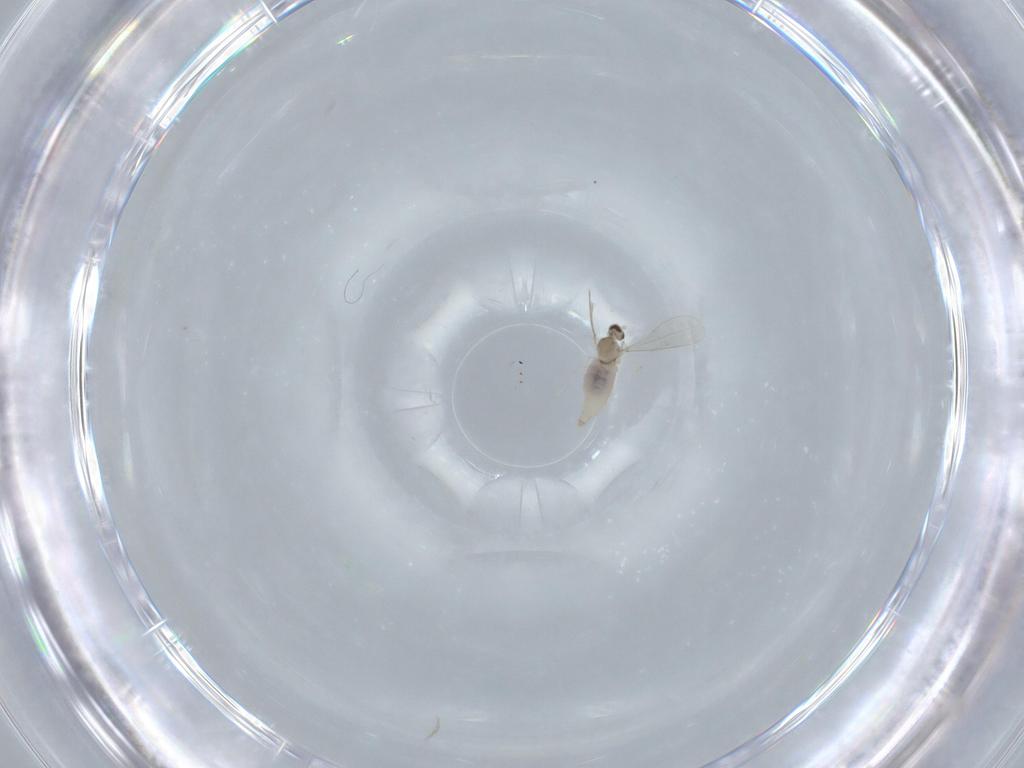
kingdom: Animalia
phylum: Arthropoda
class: Insecta
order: Diptera
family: Cecidomyiidae
